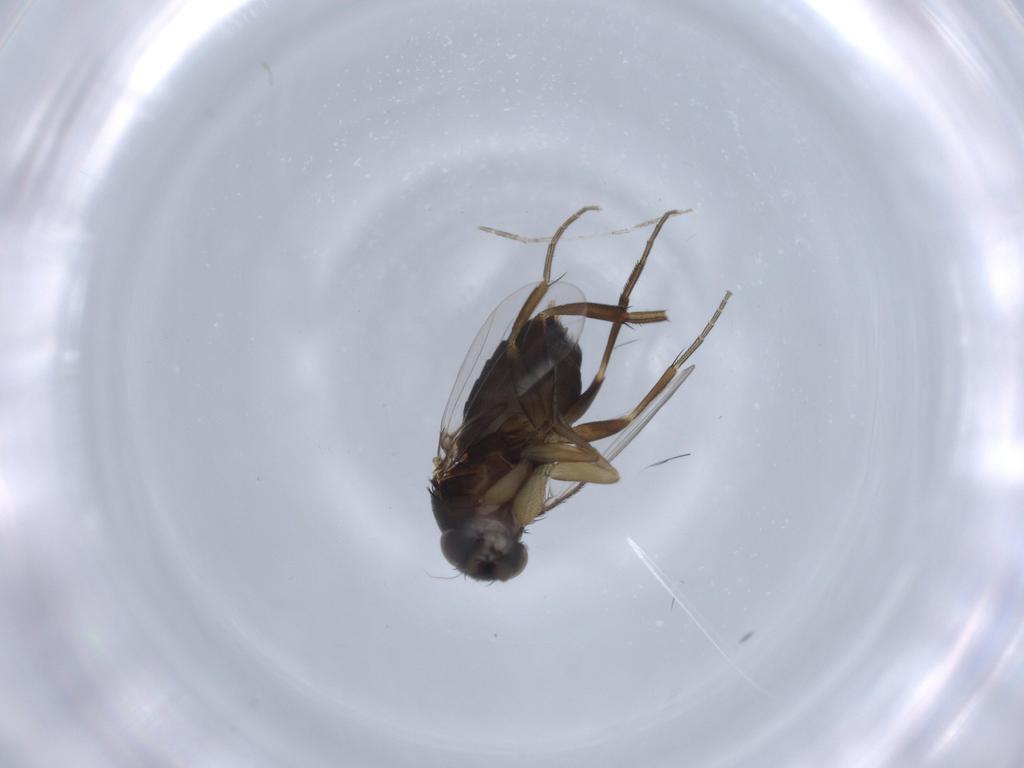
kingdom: Animalia
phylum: Arthropoda
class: Insecta
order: Diptera
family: Phoridae
